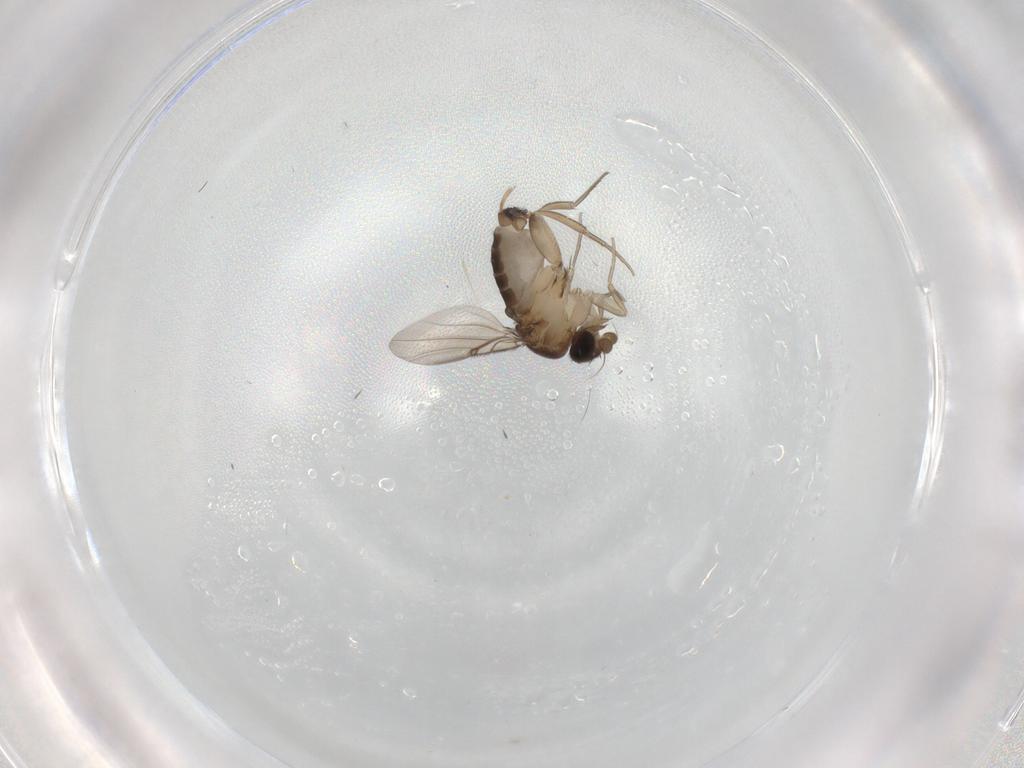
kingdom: Animalia
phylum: Arthropoda
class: Insecta
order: Diptera
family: Phoridae
